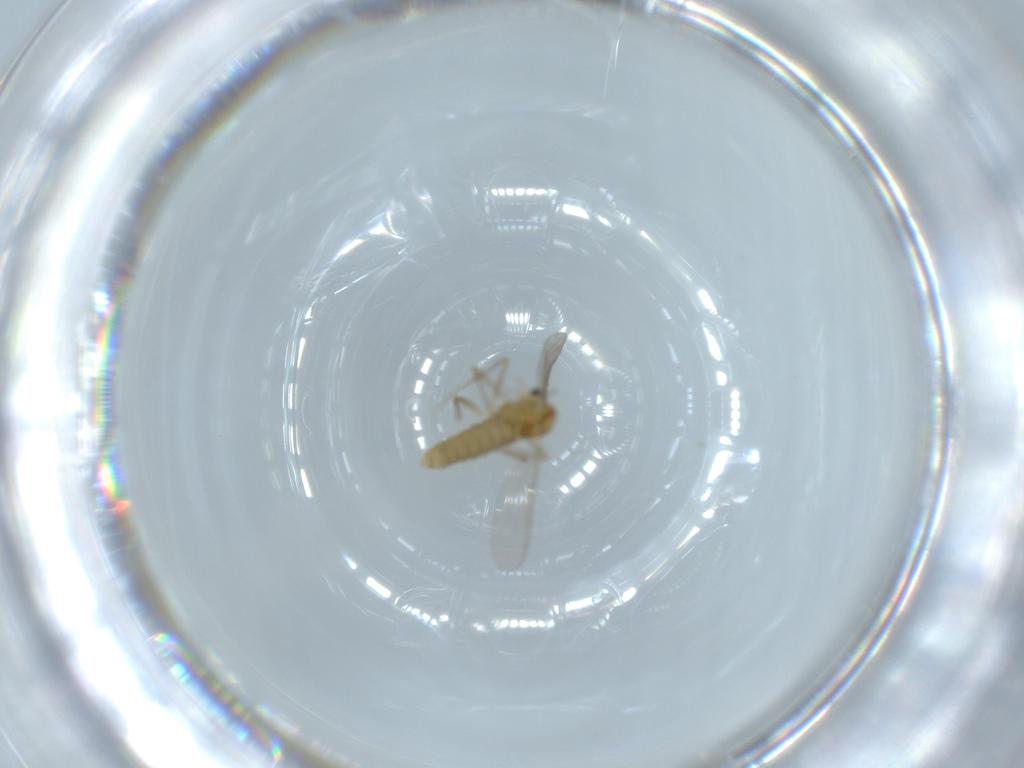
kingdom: Animalia
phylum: Arthropoda
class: Insecta
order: Diptera
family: Chironomidae
